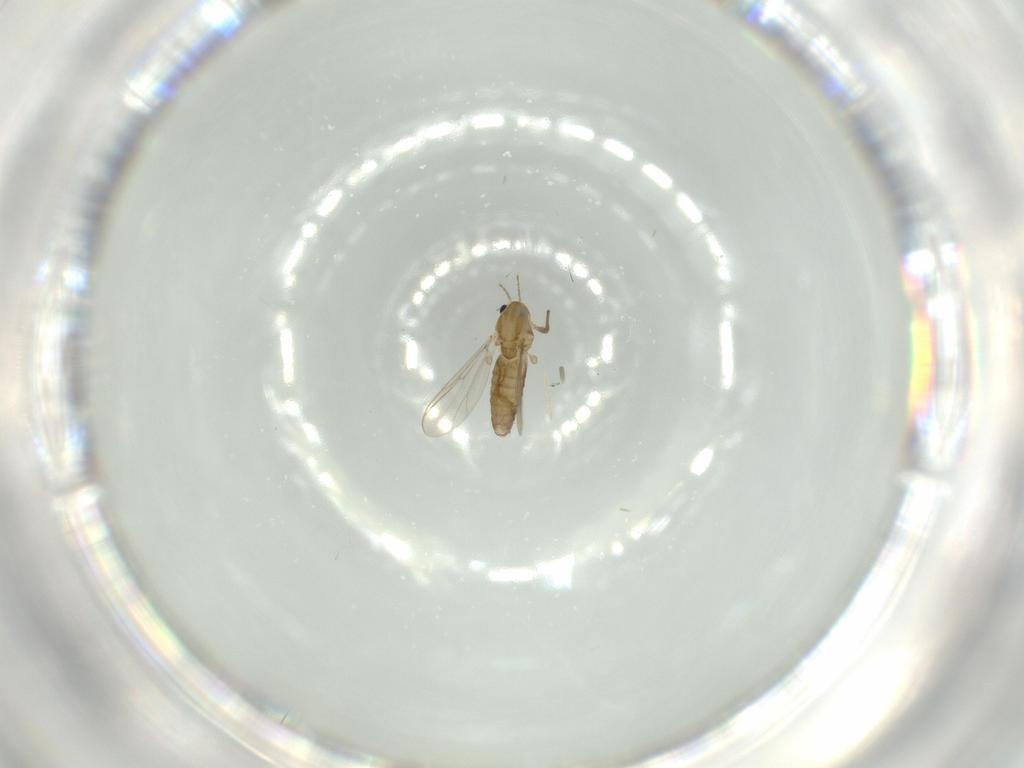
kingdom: Animalia
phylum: Arthropoda
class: Insecta
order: Diptera
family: Chironomidae
